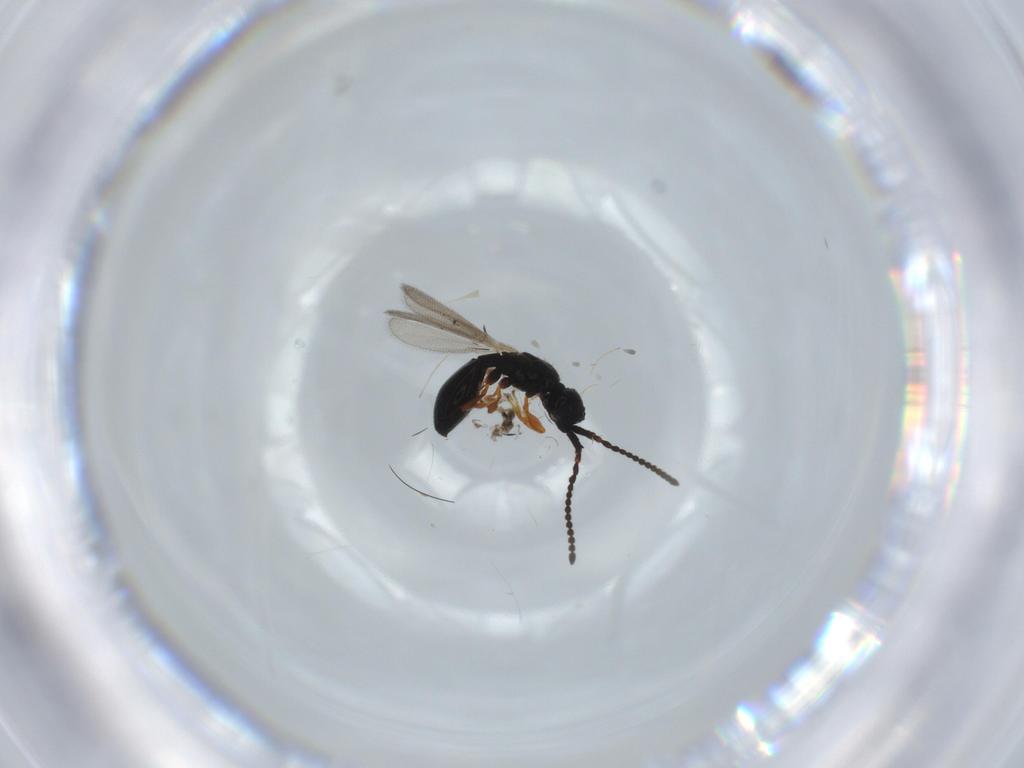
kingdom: Animalia
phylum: Arthropoda
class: Insecta
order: Hymenoptera
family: Diapriidae
